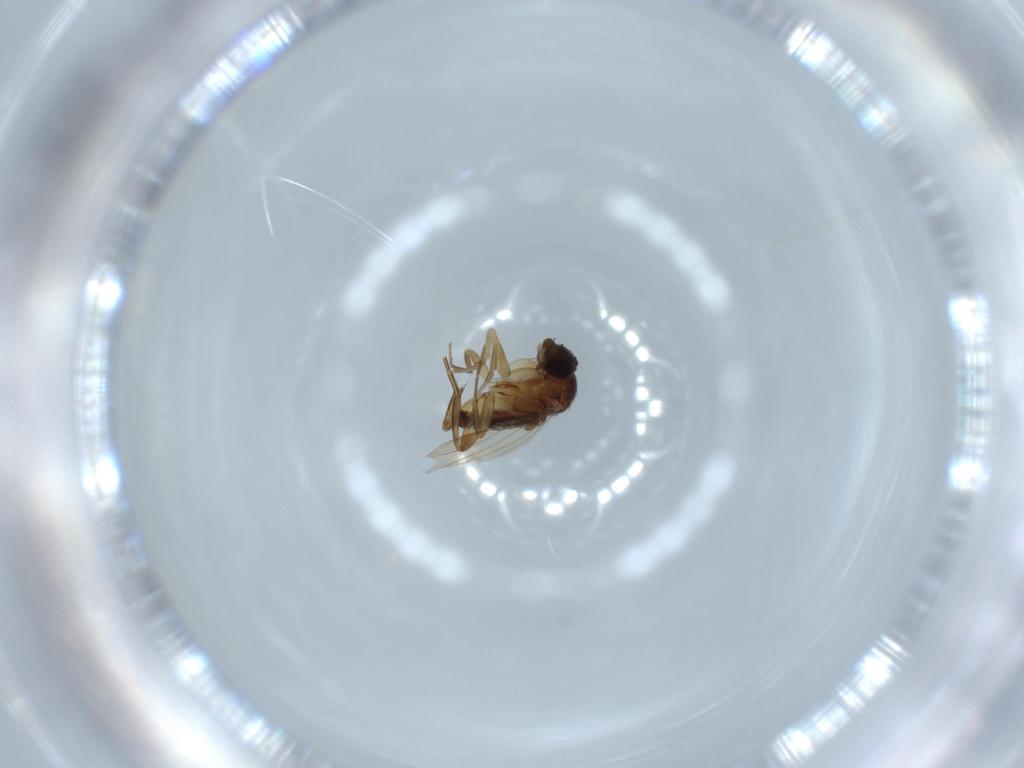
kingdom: Animalia
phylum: Arthropoda
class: Insecta
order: Diptera
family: Phoridae
